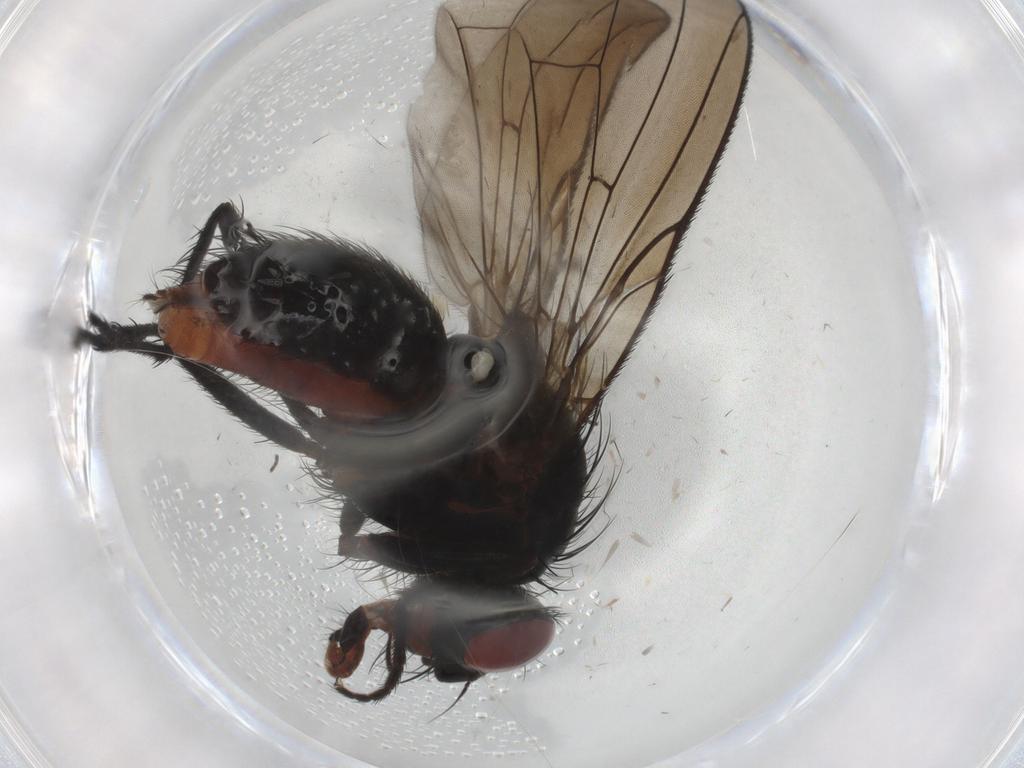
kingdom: Animalia
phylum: Arthropoda
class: Insecta
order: Diptera
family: Anthomyiidae
